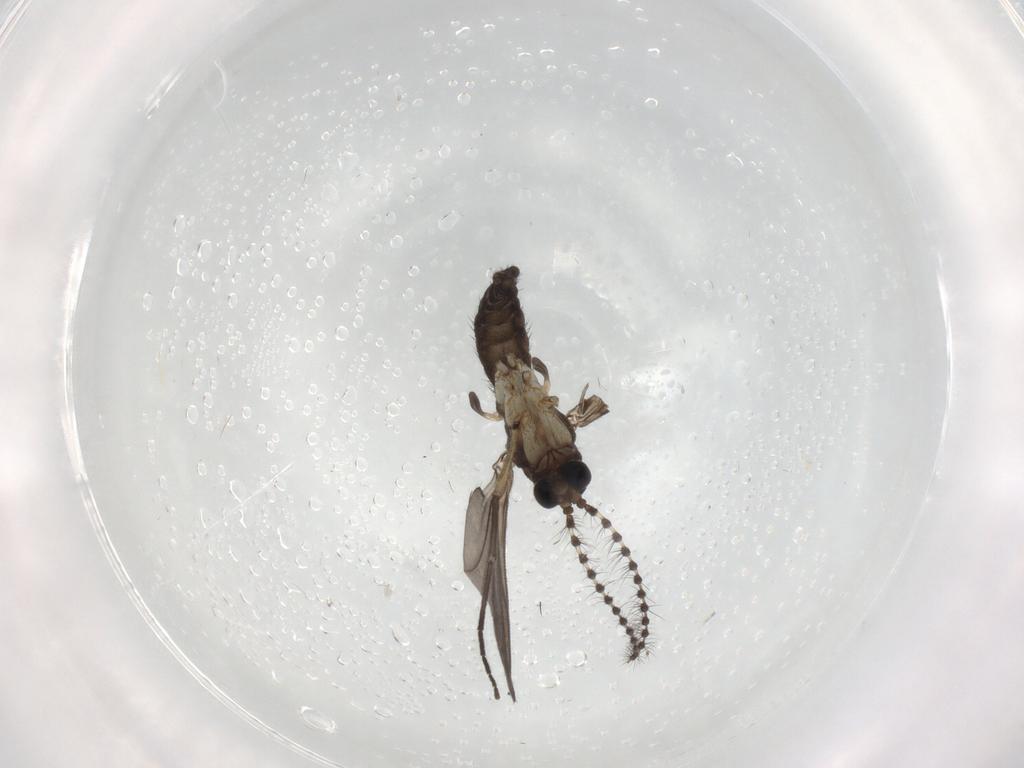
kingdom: Animalia
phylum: Arthropoda
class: Insecta
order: Diptera
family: Sciaridae
